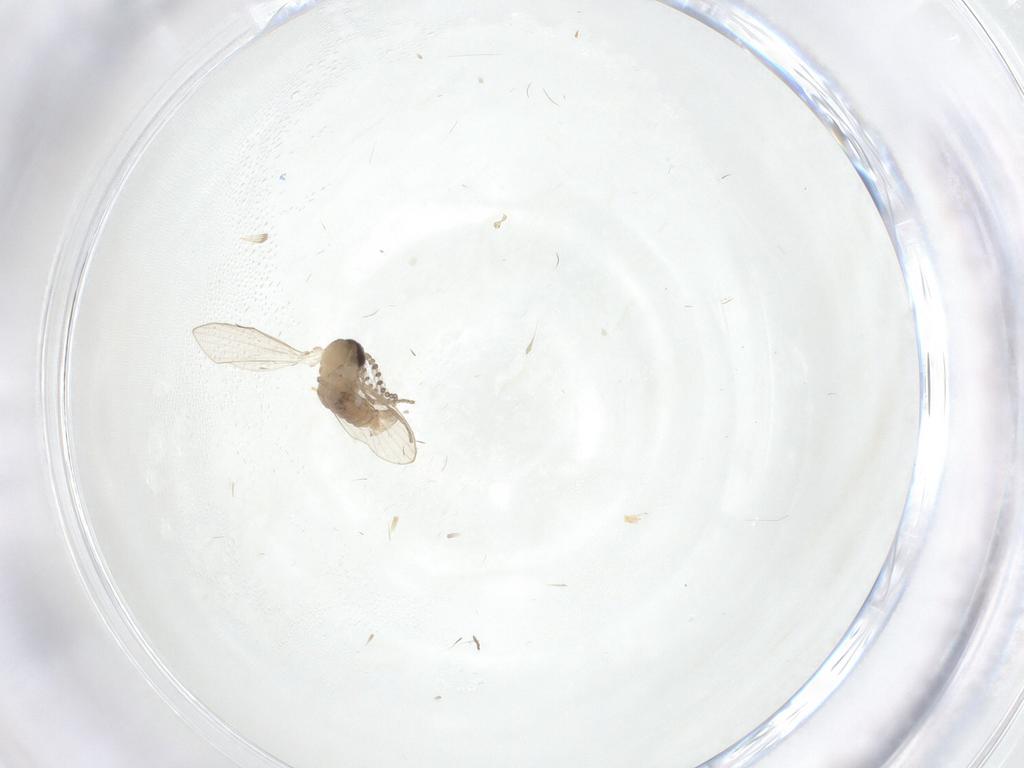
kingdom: Animalia
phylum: Arthropoda
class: Insecta
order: Diptera
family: Psychodidae
